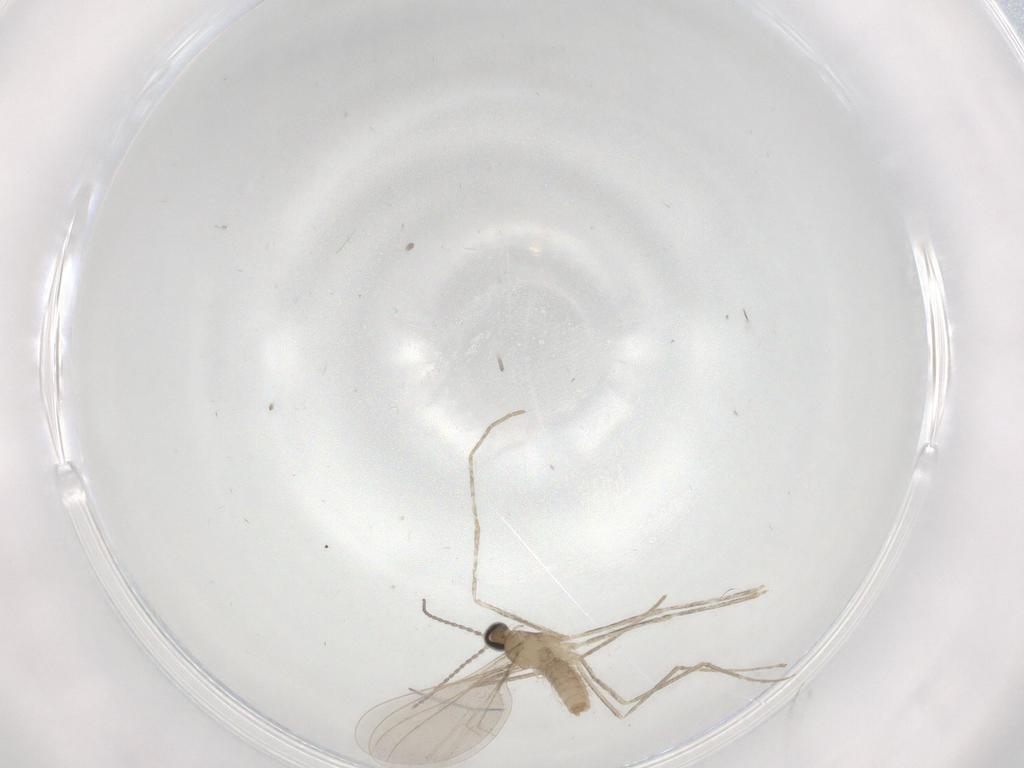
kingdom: Animalia
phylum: Arthropoda
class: Insecta
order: Diptera
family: Cecidomyiidae
